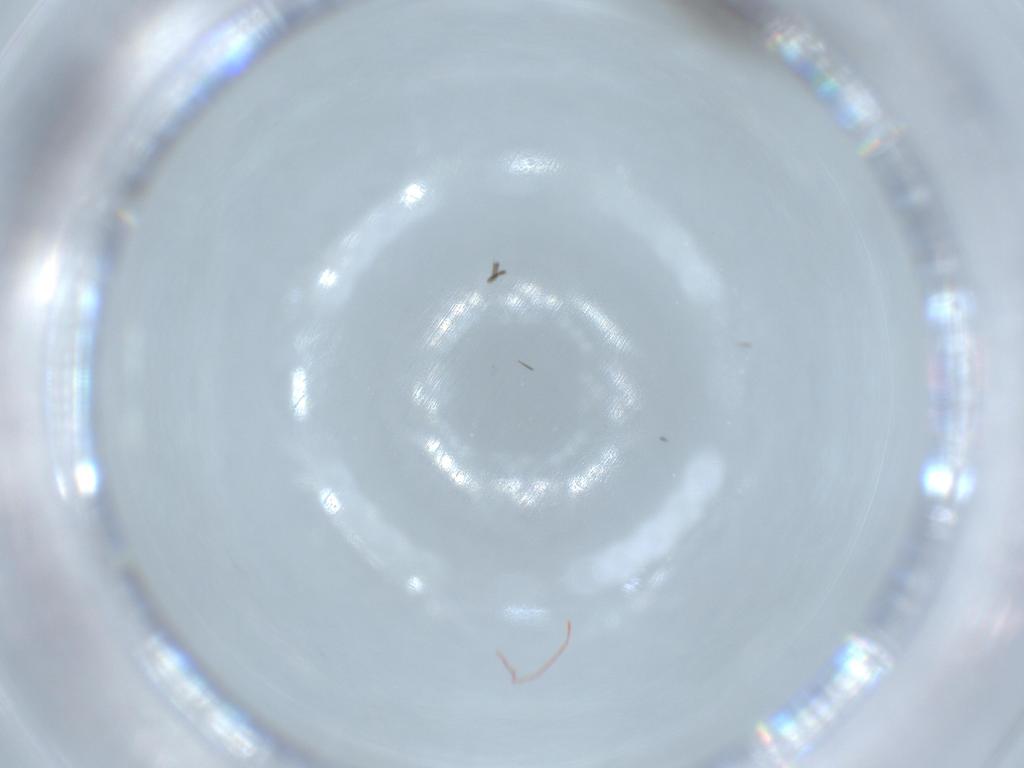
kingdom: Animalia
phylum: Arthropoda
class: Insecta
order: Diptera
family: Sciaridae
